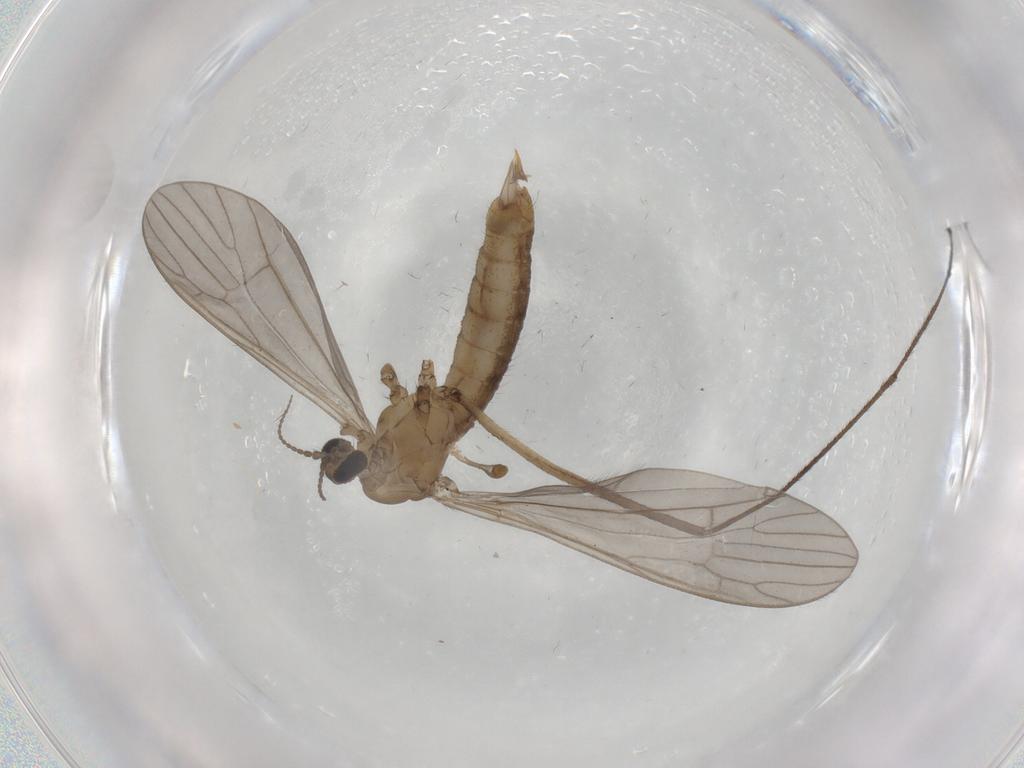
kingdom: Animalia
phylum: Arthropoda
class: Insecta
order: Diptera
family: Limoniidae
